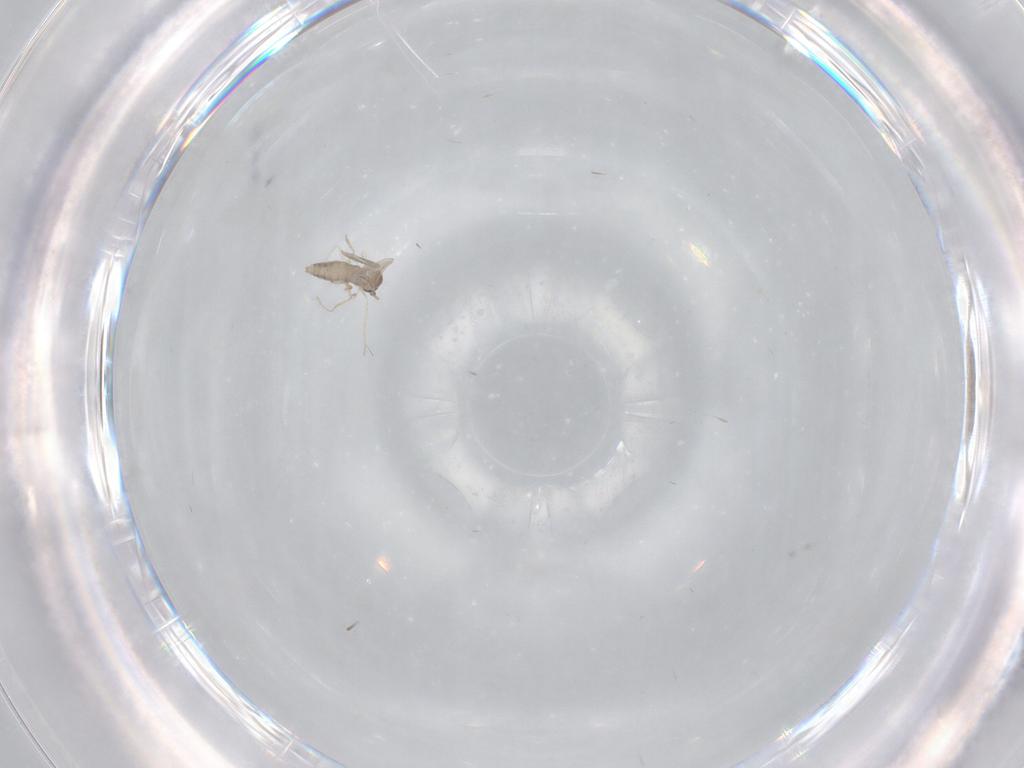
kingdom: Animalia
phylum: Arthropoda
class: Insecta
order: Diptera
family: Cecidomyiidae
